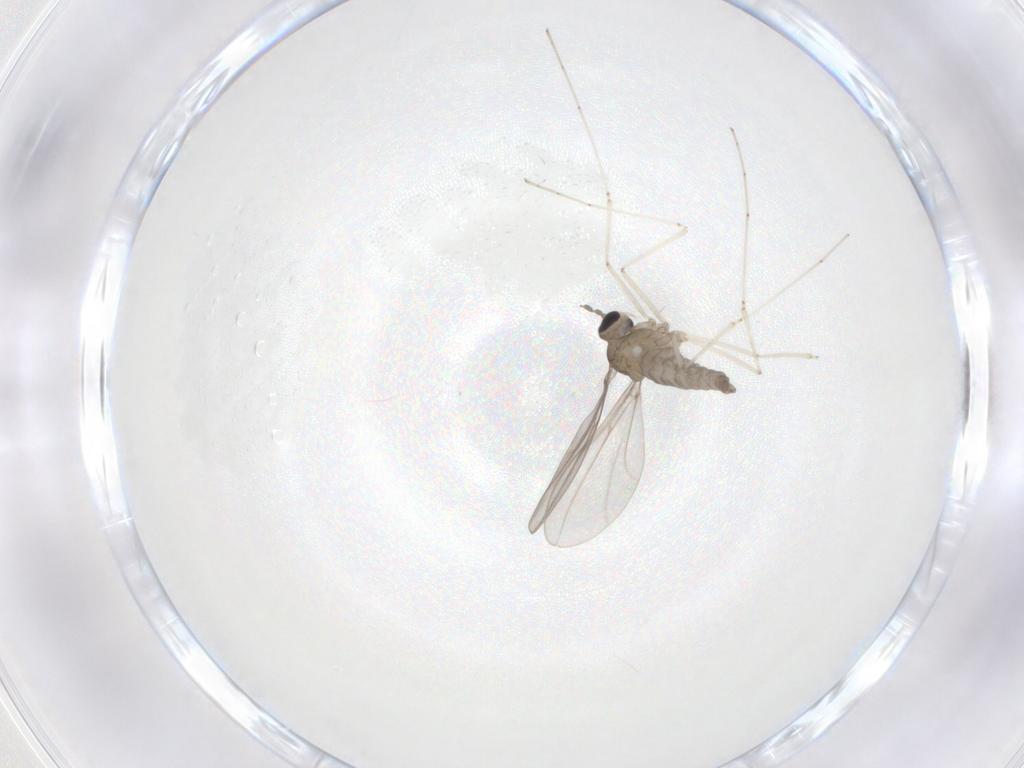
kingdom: Animalia
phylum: Arthropoda
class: Insecta
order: Diptera
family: Cecidomyiidae
